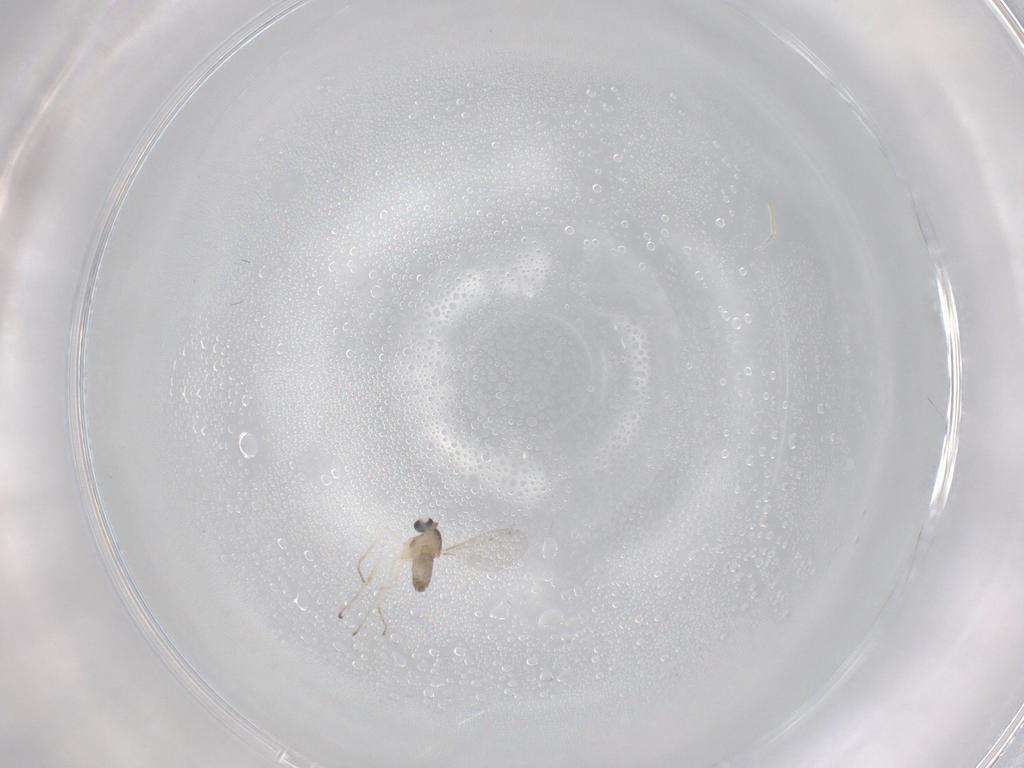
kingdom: Animalia
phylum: Arthropoda
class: Insecta
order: Diptera
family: Cecidomyiidae
